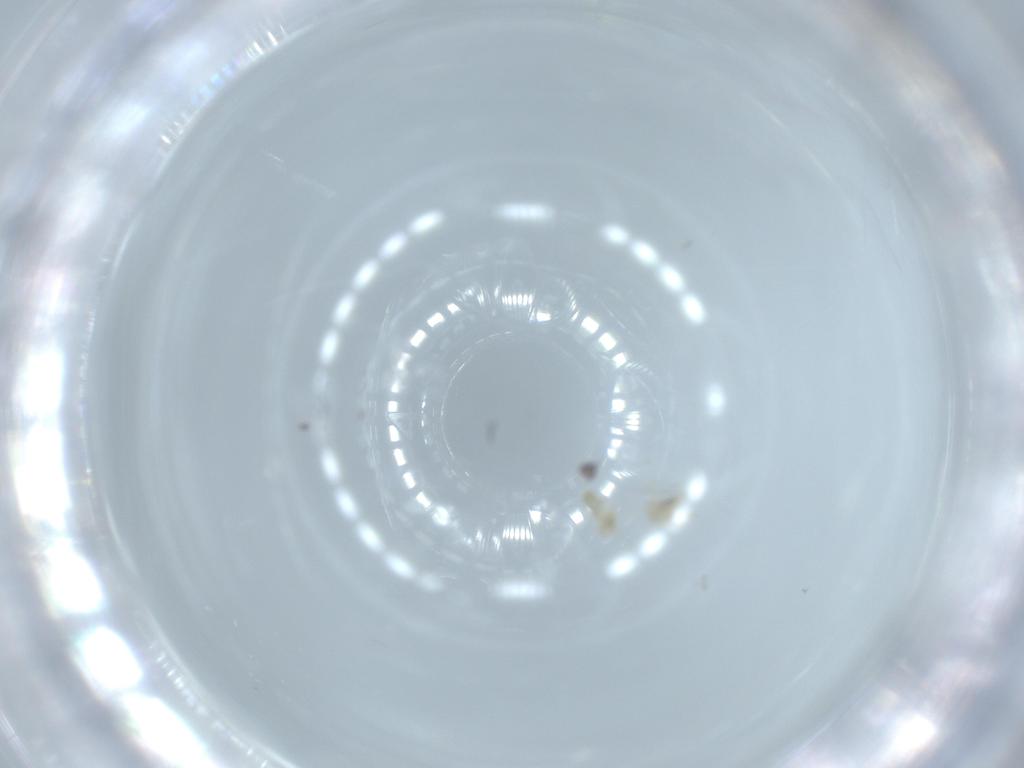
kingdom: Animalia
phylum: Arthropoda
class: Insecta
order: Diptera
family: Cecidomyiidae
